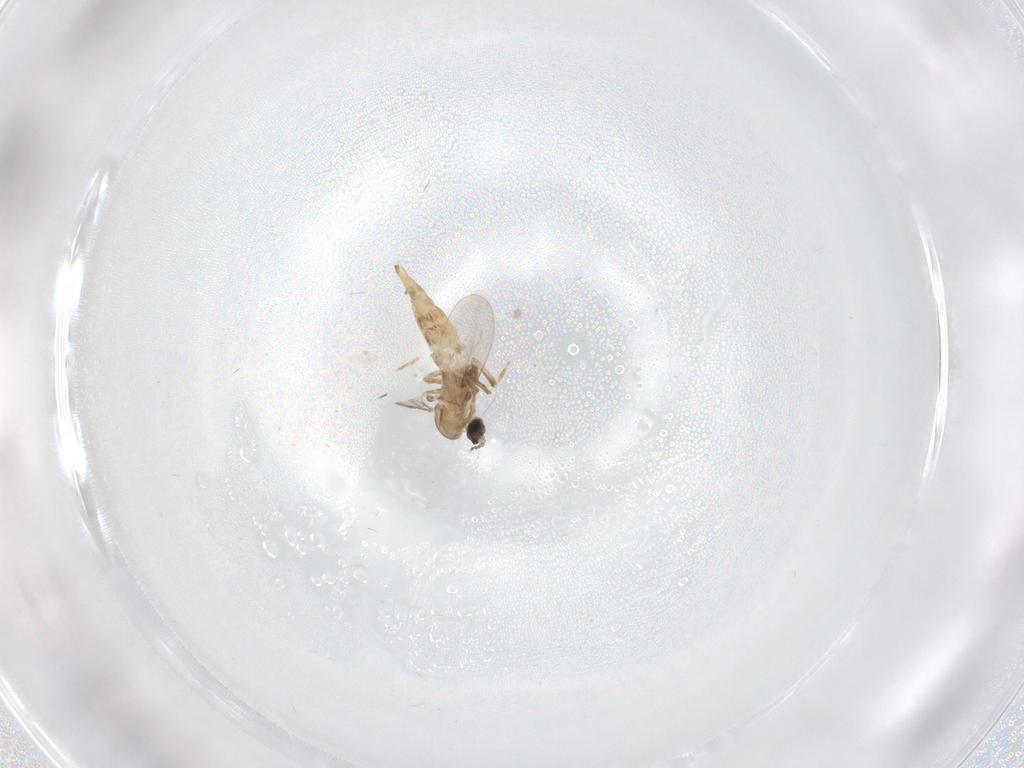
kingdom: Animalia
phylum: Arthropoda
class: Insecta
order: Diptera
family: Cecidomyiidae
